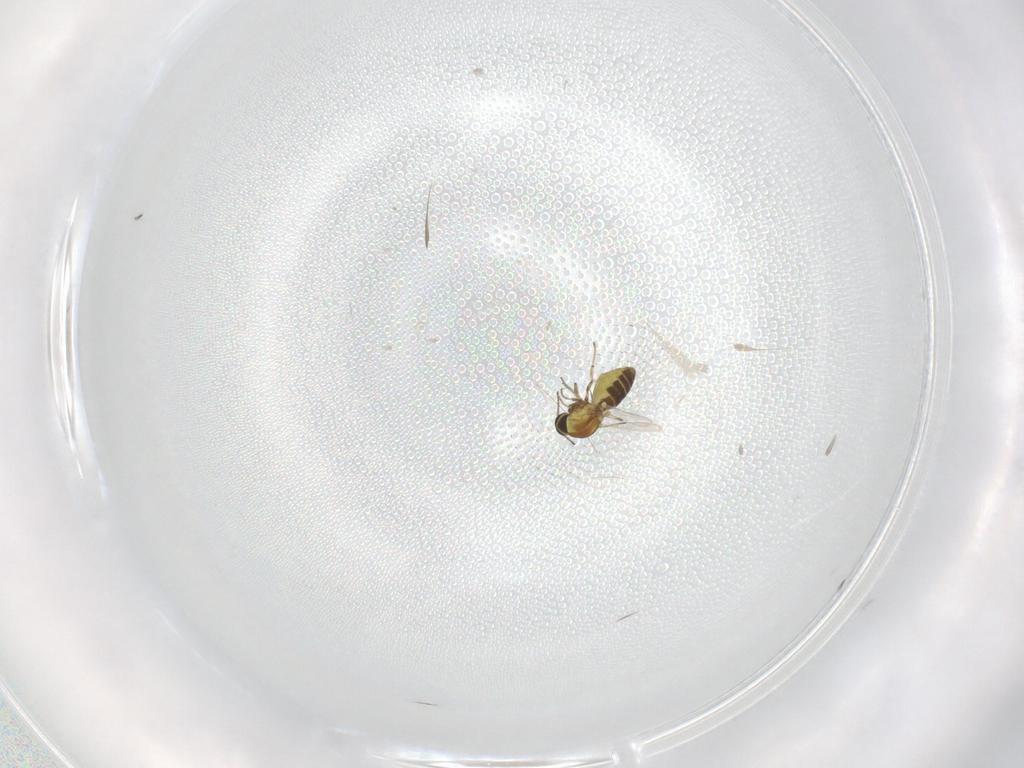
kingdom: Animalia
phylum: Arthropoda
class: Insecta
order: Diptera
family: Ceratopogonidae
